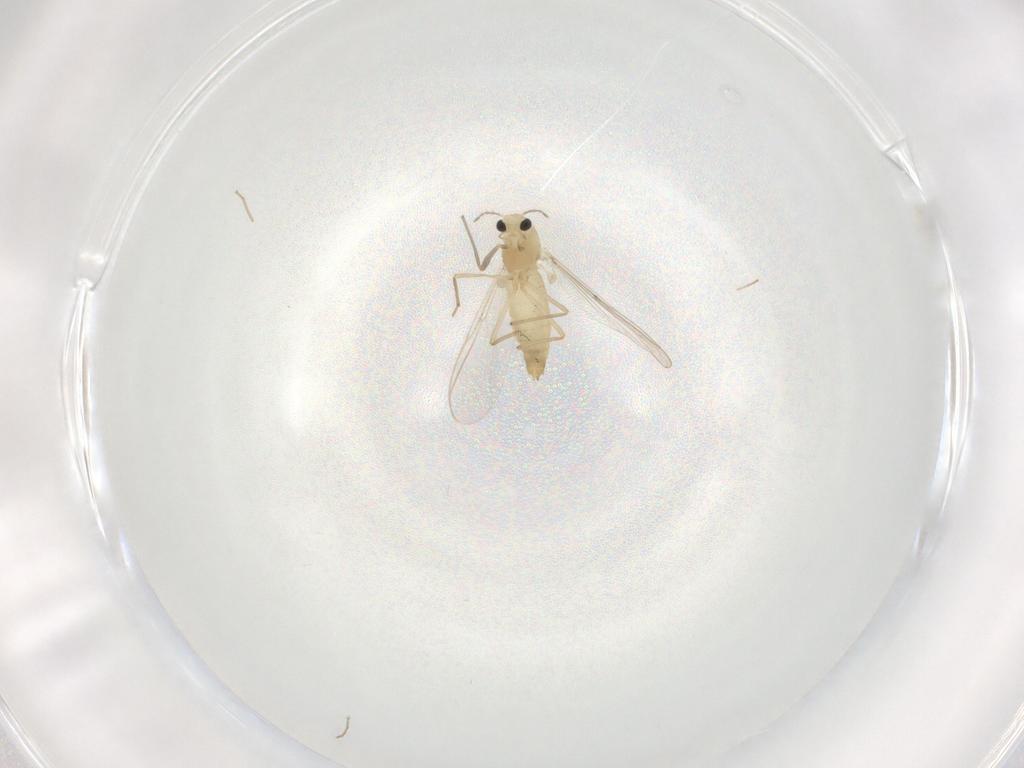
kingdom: Animalia
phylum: Arthropoda
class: Insecta
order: Diptera
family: Chironomidae
